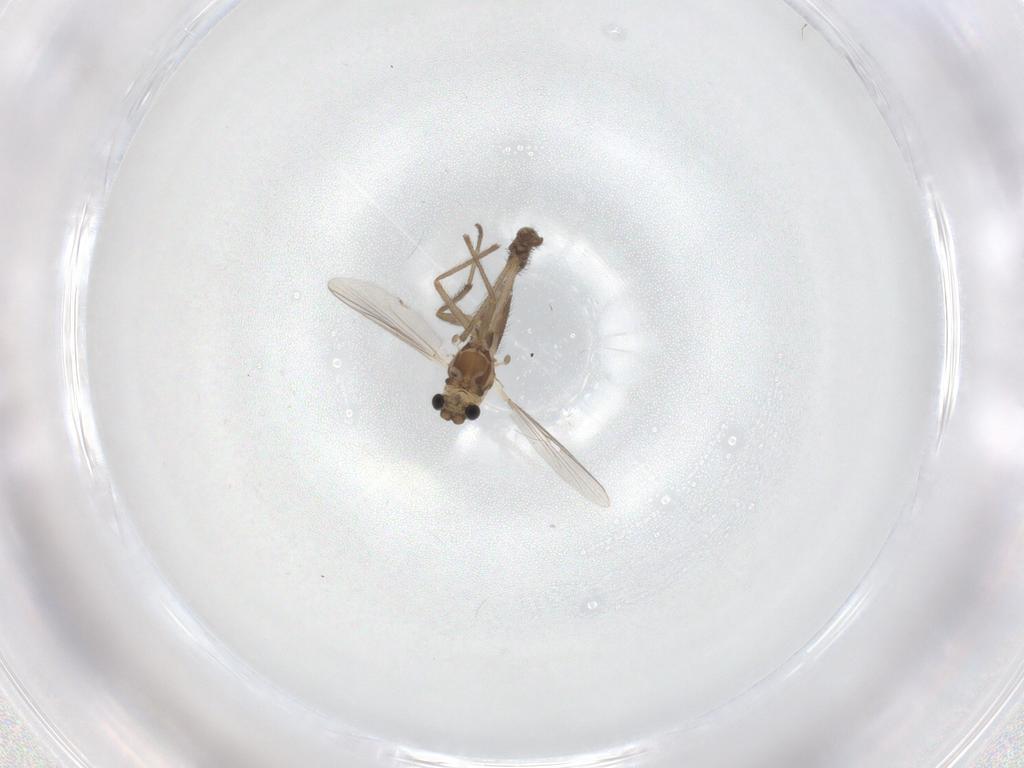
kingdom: Animalia
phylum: Arthropoda
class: Insecta
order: Diptera
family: Chironomidae
